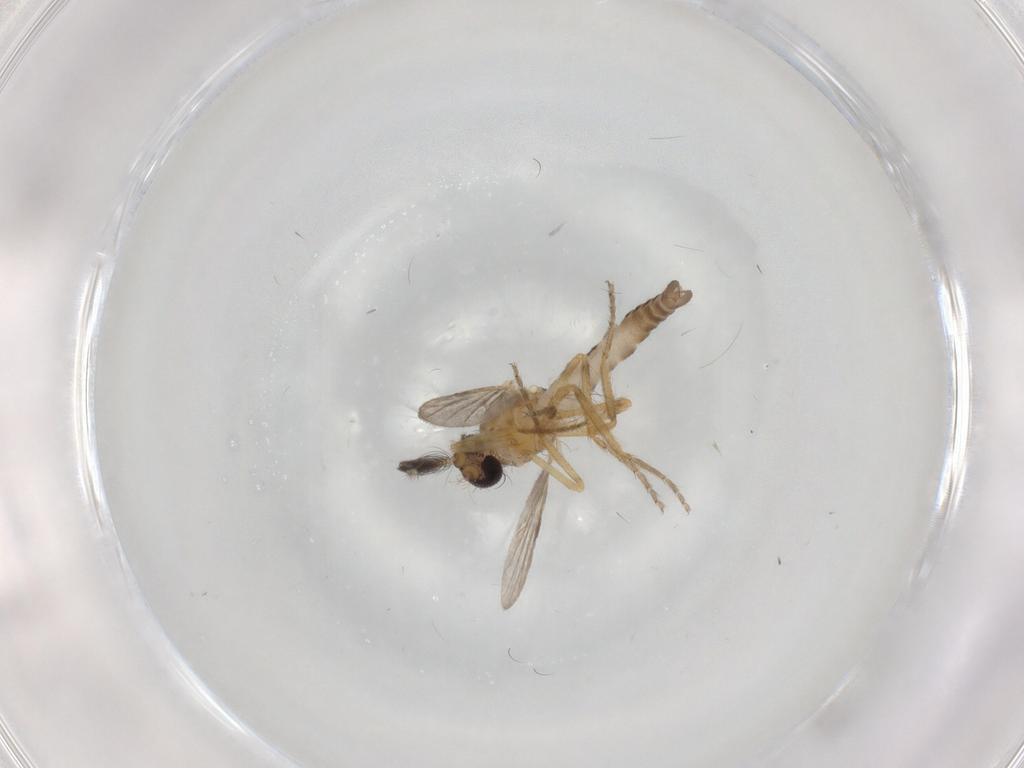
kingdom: Animalia
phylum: Arthropoda
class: Insecta
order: Diptera
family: Ceratopogonidae
